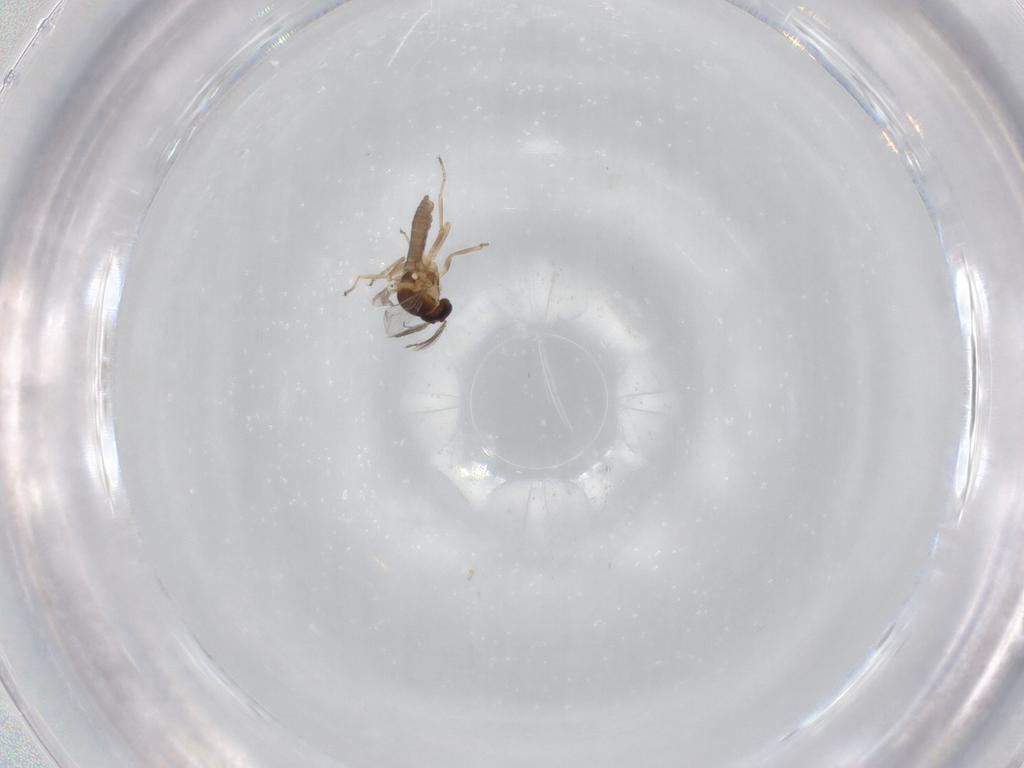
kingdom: Animalia
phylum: Arthropoda
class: Insecta
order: Diptera
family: Ceratopogonidae
